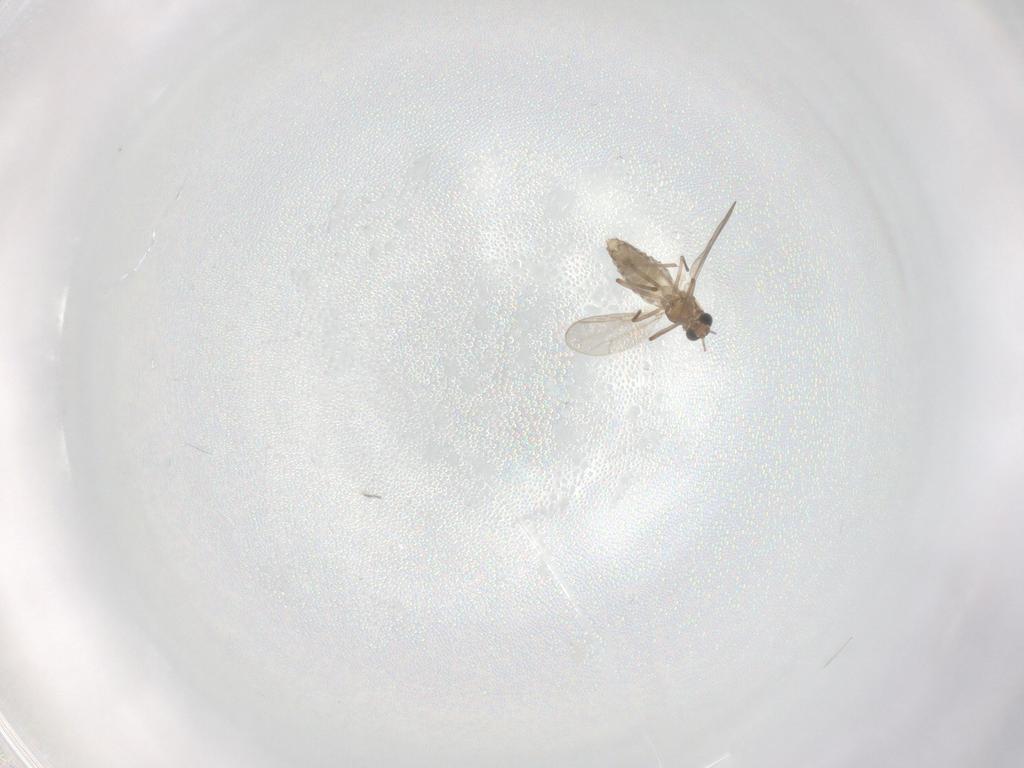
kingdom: Animalia
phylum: Arthropoda
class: Insecta
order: Diptera
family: Chironomidae
